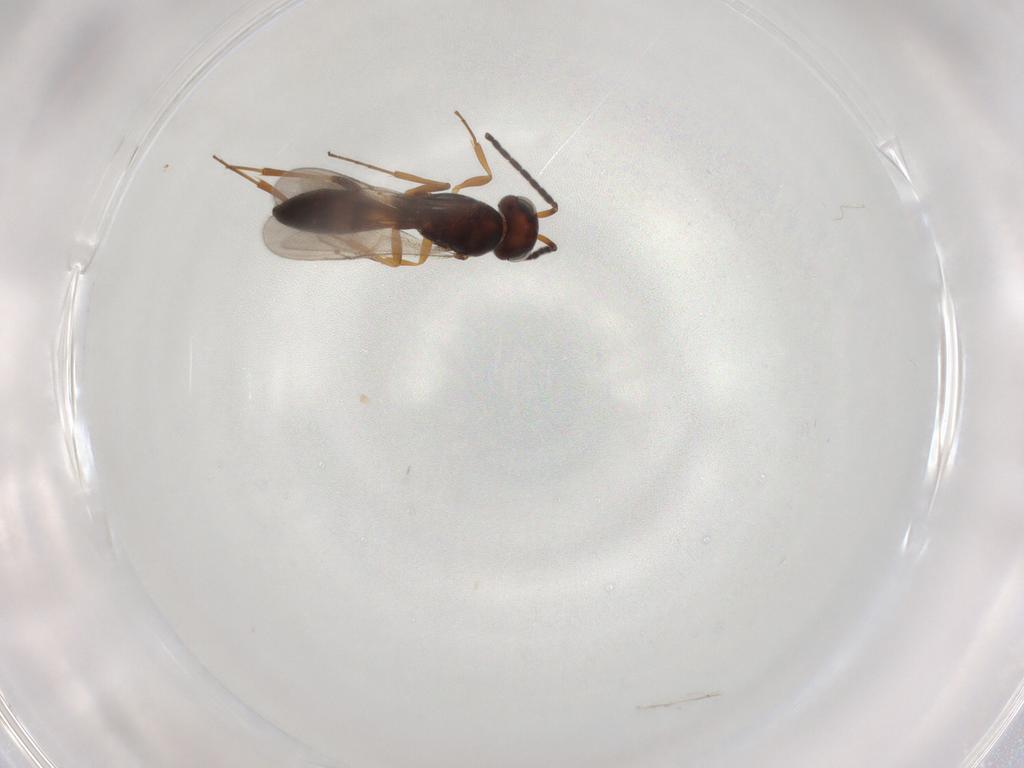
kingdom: Animalia
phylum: Arthropoda
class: Insecta
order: Hymenoptera
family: Scelionidae
